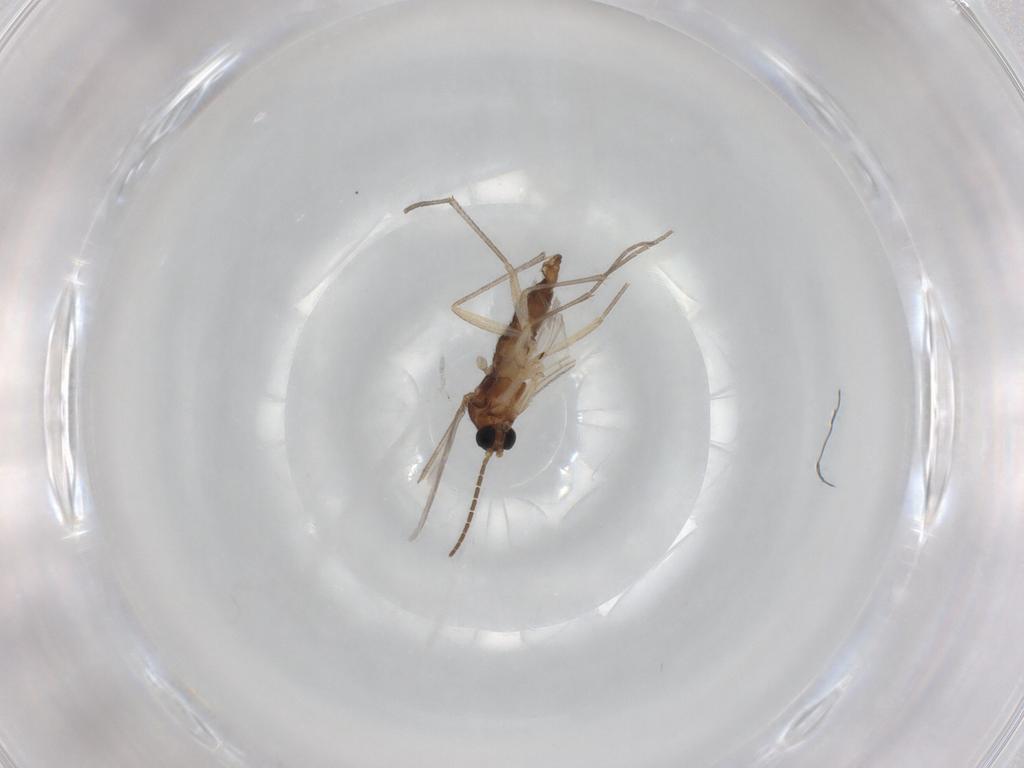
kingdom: Animalia
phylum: Arthropoda
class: Insecta
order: Diptera
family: Sciaridae
